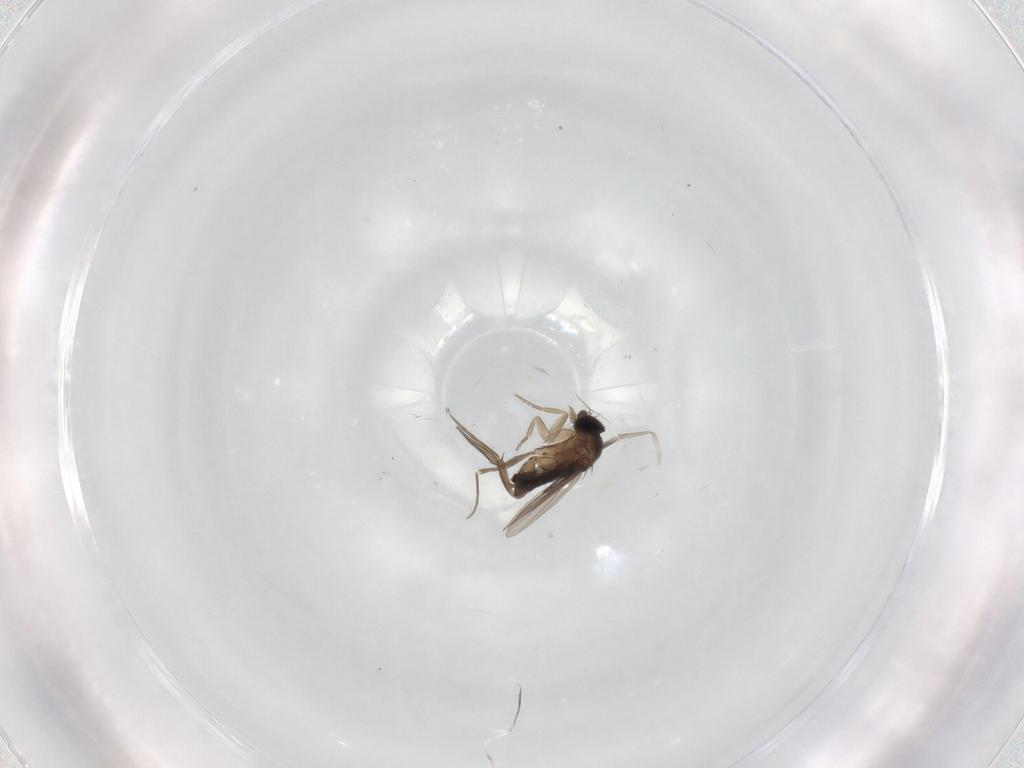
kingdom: Animalia
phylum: Arthropoda
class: Insecta
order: Diptera
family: Phoridae
